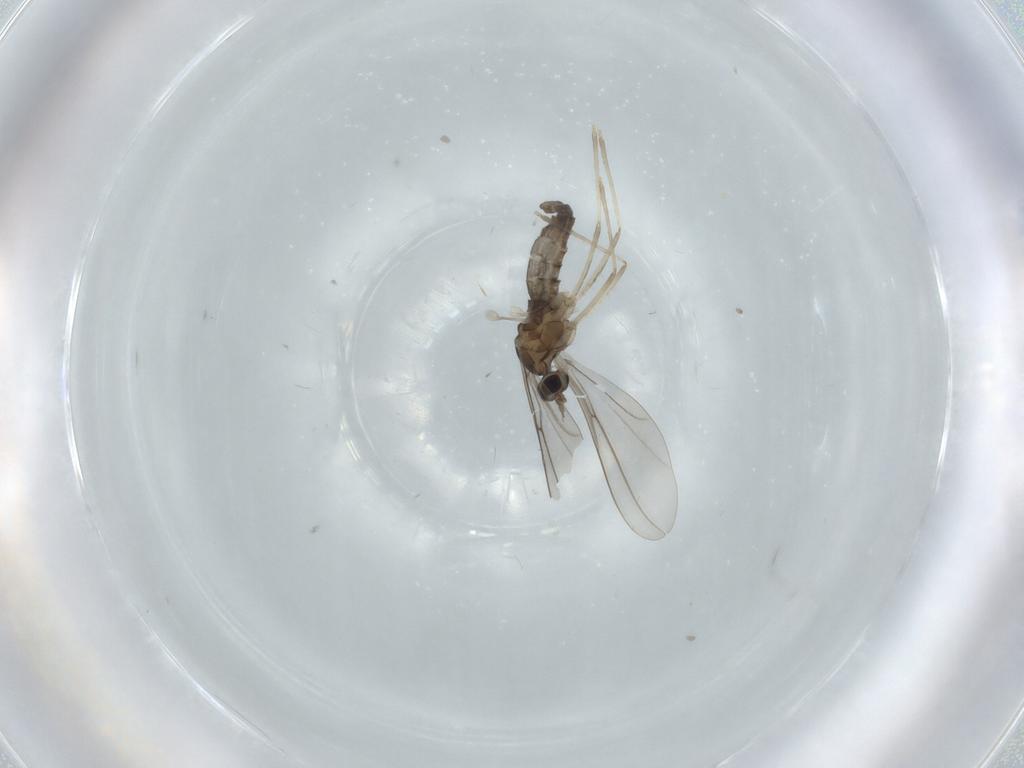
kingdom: Animalia
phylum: Arthropoda
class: Insecta
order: Diptera
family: Cecidomyiidae
